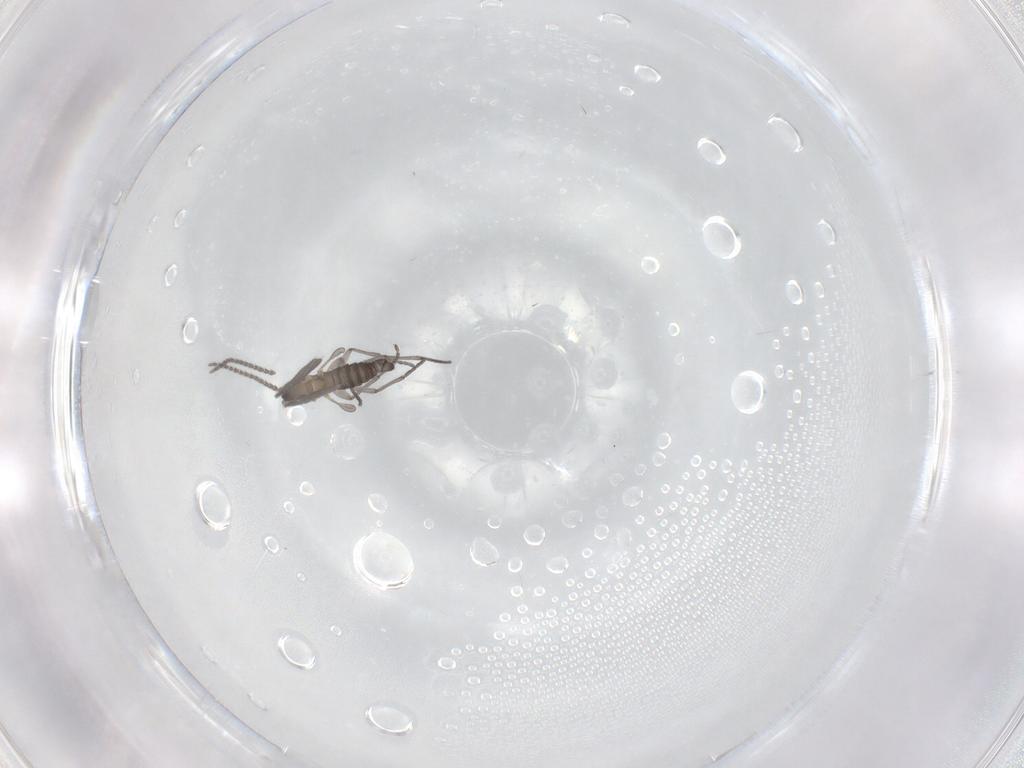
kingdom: Animalia
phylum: Arthropoda
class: Insecta
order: Diptera
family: Sciaridae
